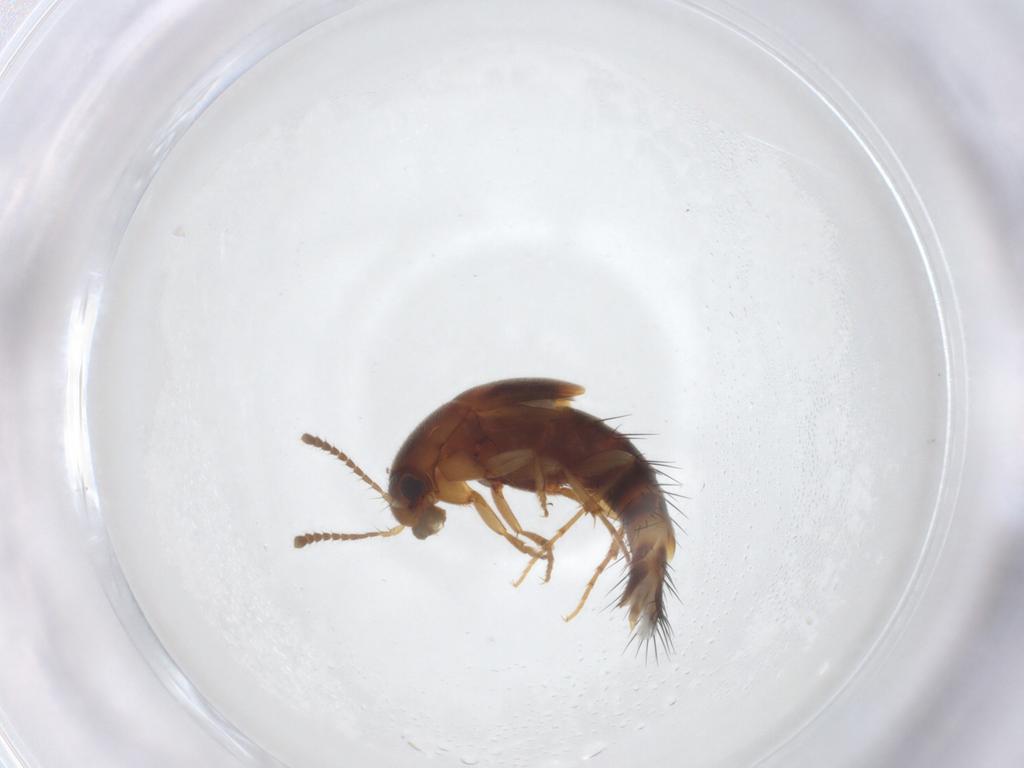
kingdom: Animalia
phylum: Arthropoda
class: Insecta
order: Coleoptera
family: Staphylinidae
